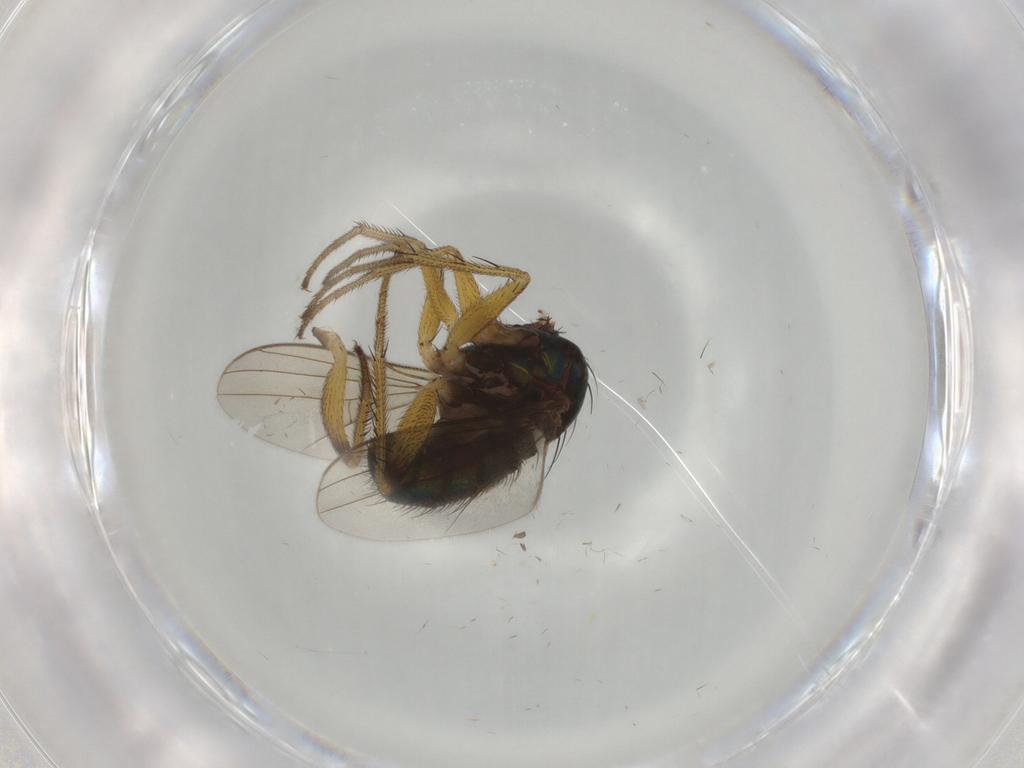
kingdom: Animalia
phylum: Arthropoda
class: Insecta
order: Diptera
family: Dolichopodidae
